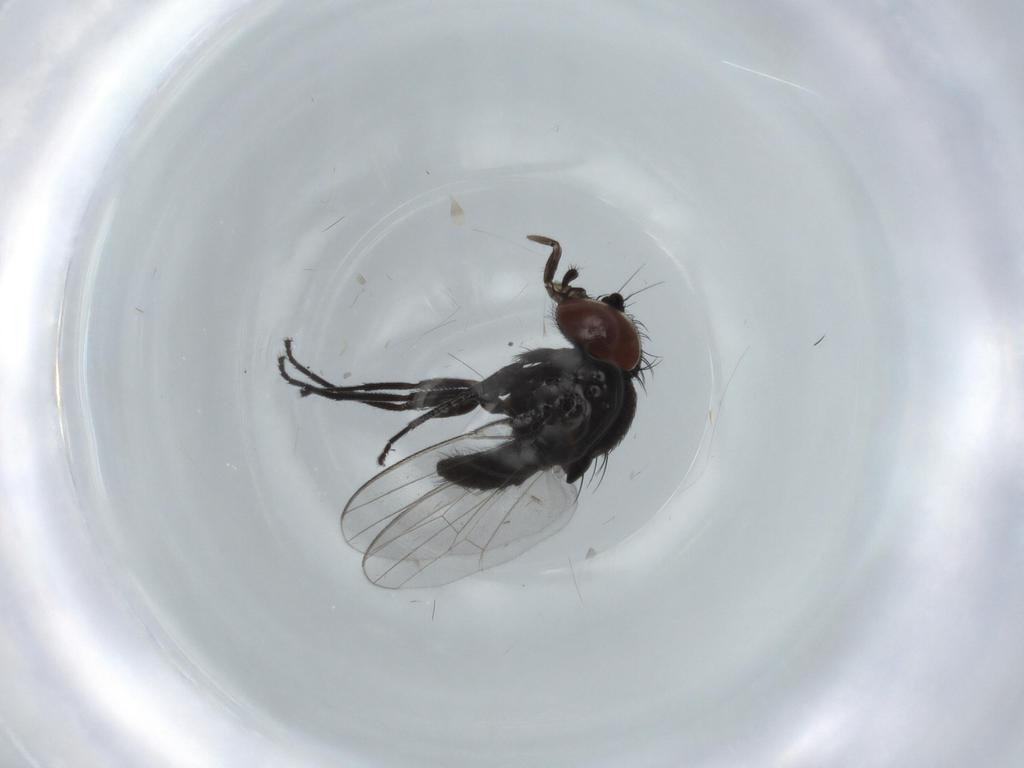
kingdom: Animalia
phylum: Arthropoda
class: Insecta
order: Diptera
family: Milichiidae
